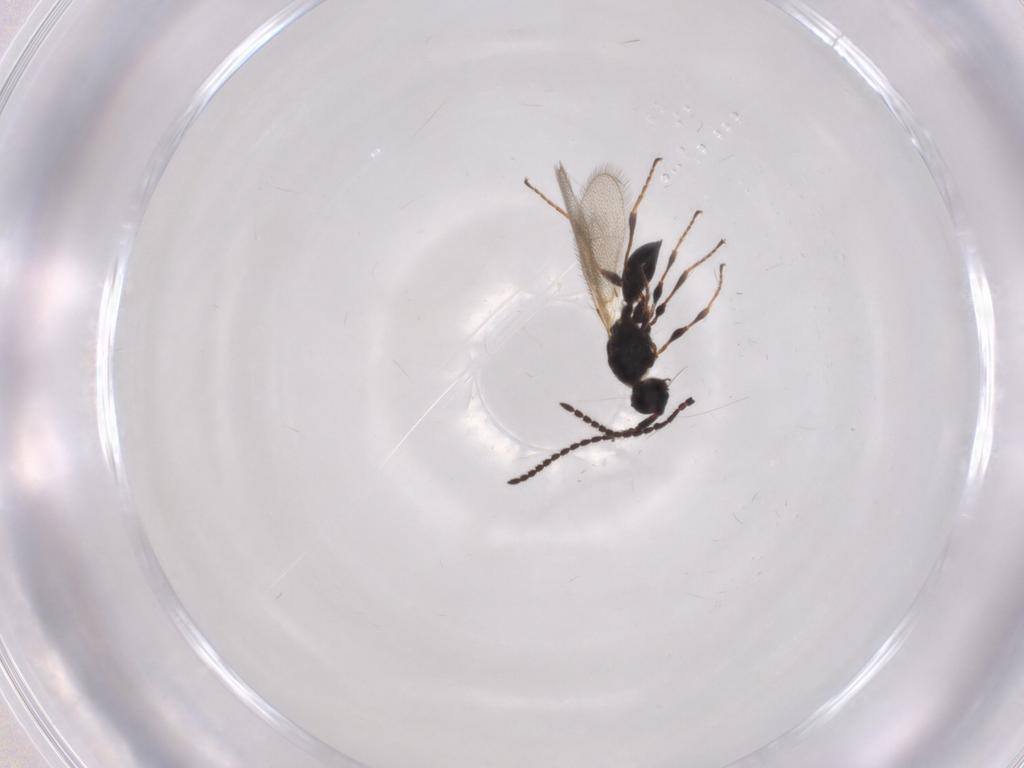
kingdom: Animalia
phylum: Arthropoda
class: Insecta
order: Hymenoptera
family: Diapriidae
